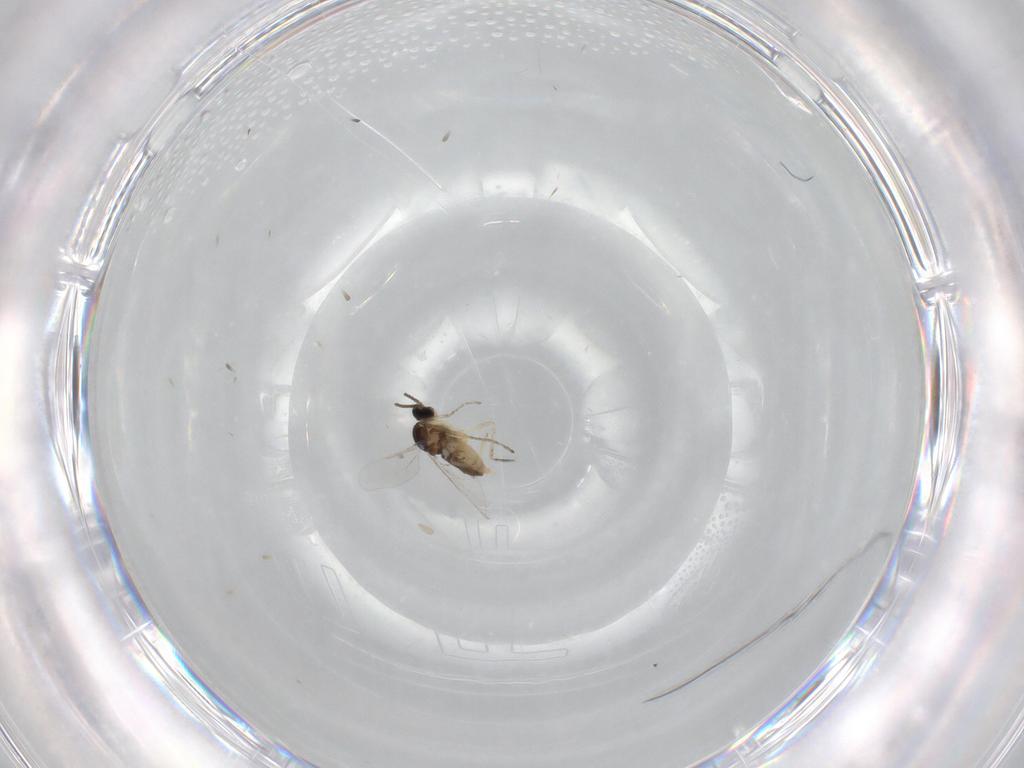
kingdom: Animalia
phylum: Arthropoda
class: Insecta
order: Diptera
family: Cecidomyiidae
